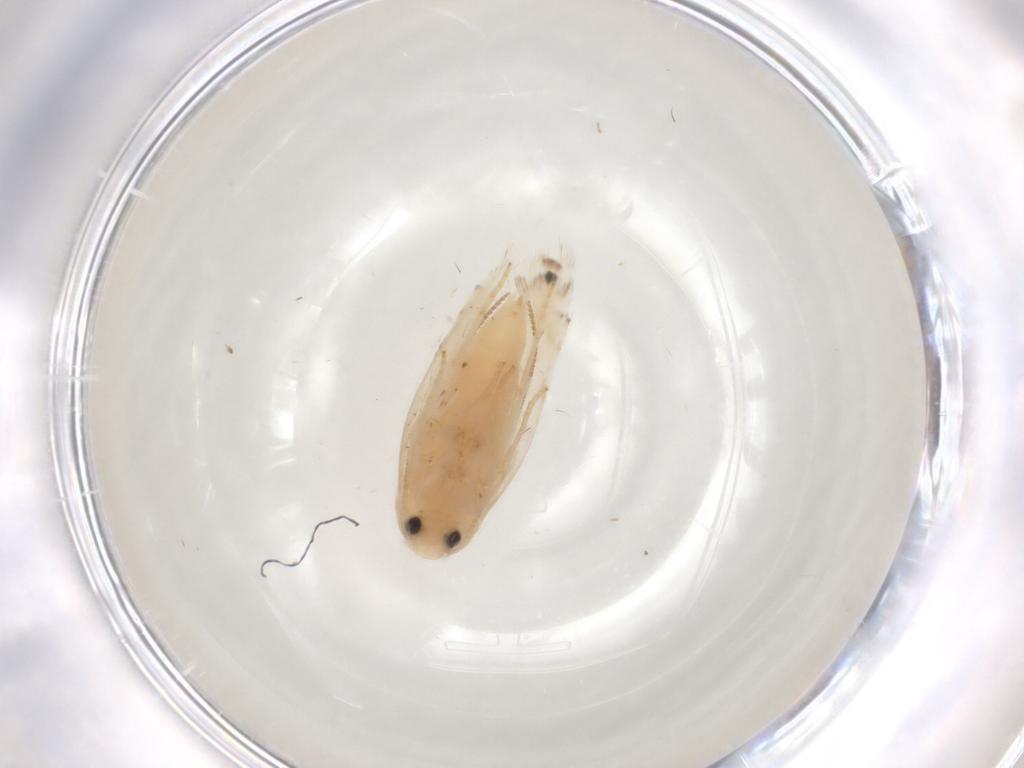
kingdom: Animalia
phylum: Arthropoda
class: Insecta
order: Lepidoptera
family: Gracillariidae
